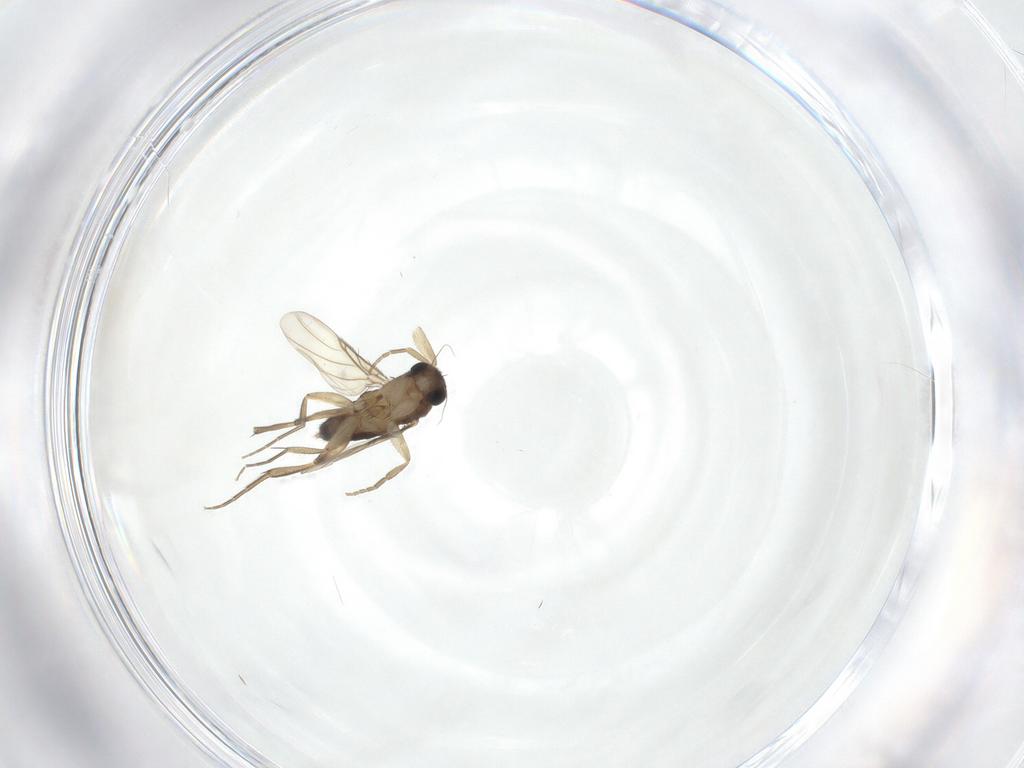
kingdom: Animalia
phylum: Arthropoda
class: Insecta
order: Diptera
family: Phoridae
